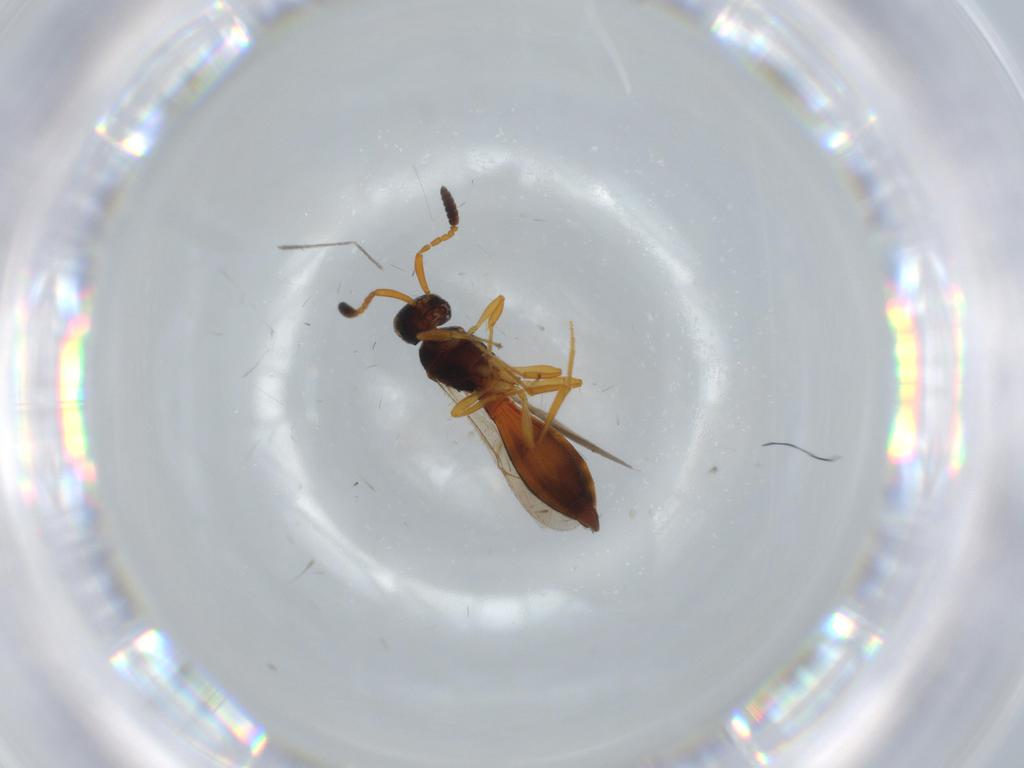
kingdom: Animalia
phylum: Arthropoda
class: Insecta
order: Hymenoptera
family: Scelionidae
